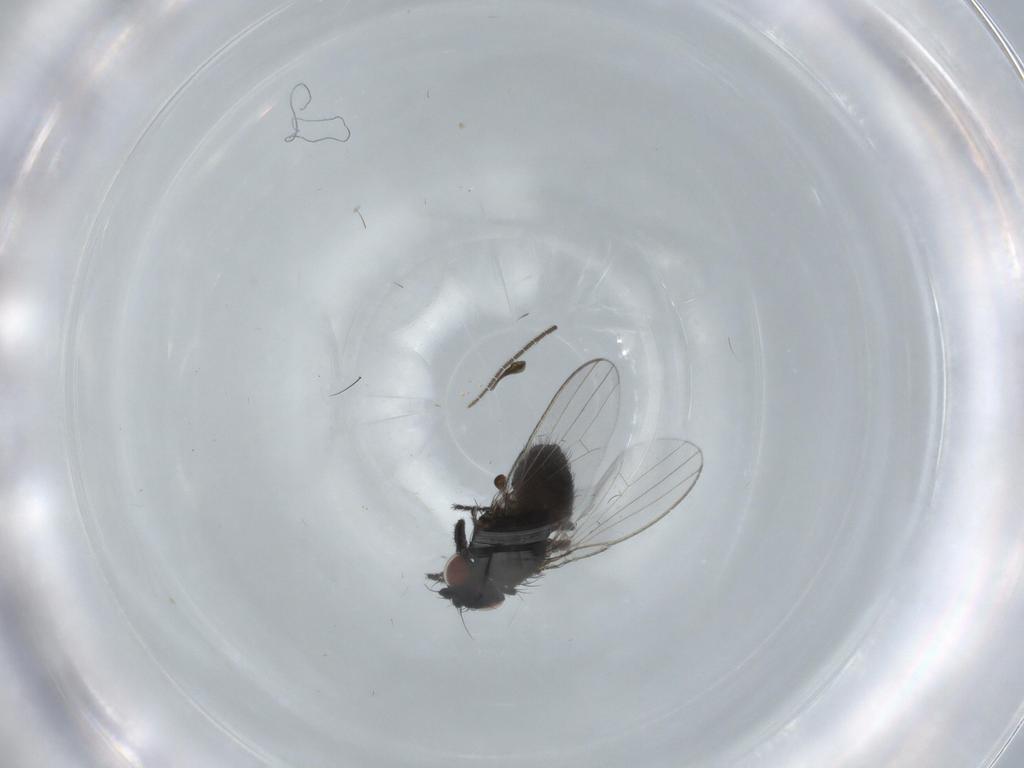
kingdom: Animalia
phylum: Arthropoda
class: Insecta
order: Diptera
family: Milichiidae
